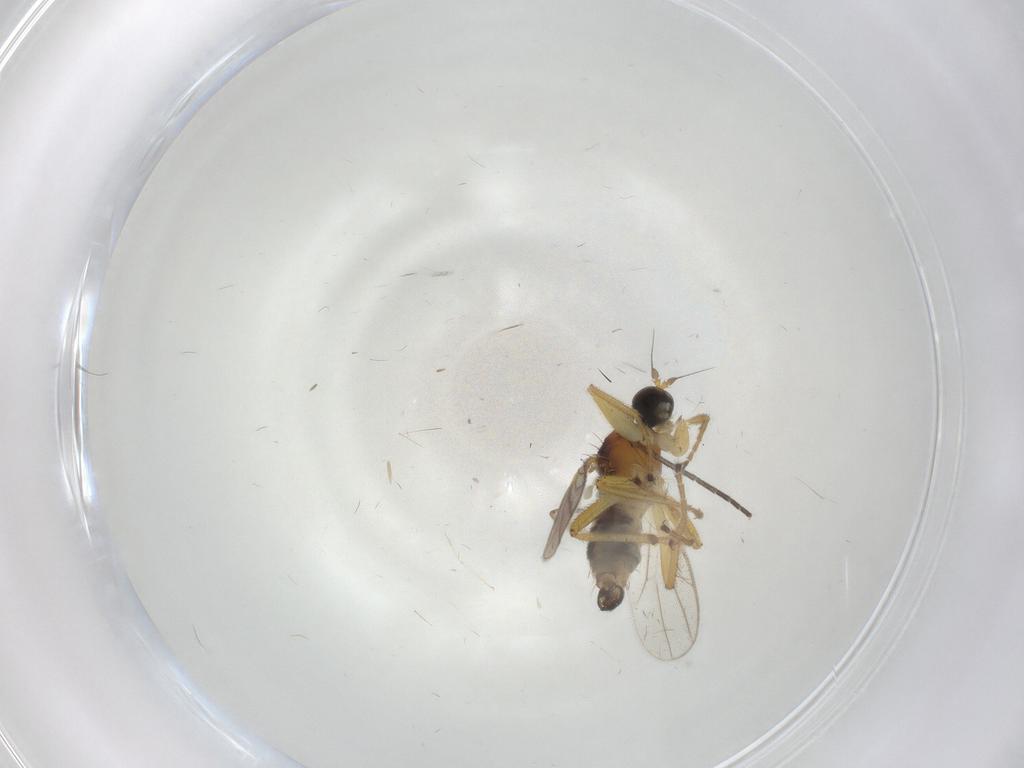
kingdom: Animalia
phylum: Arthropoda
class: Insecta
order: Diptera
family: Hybotidae
